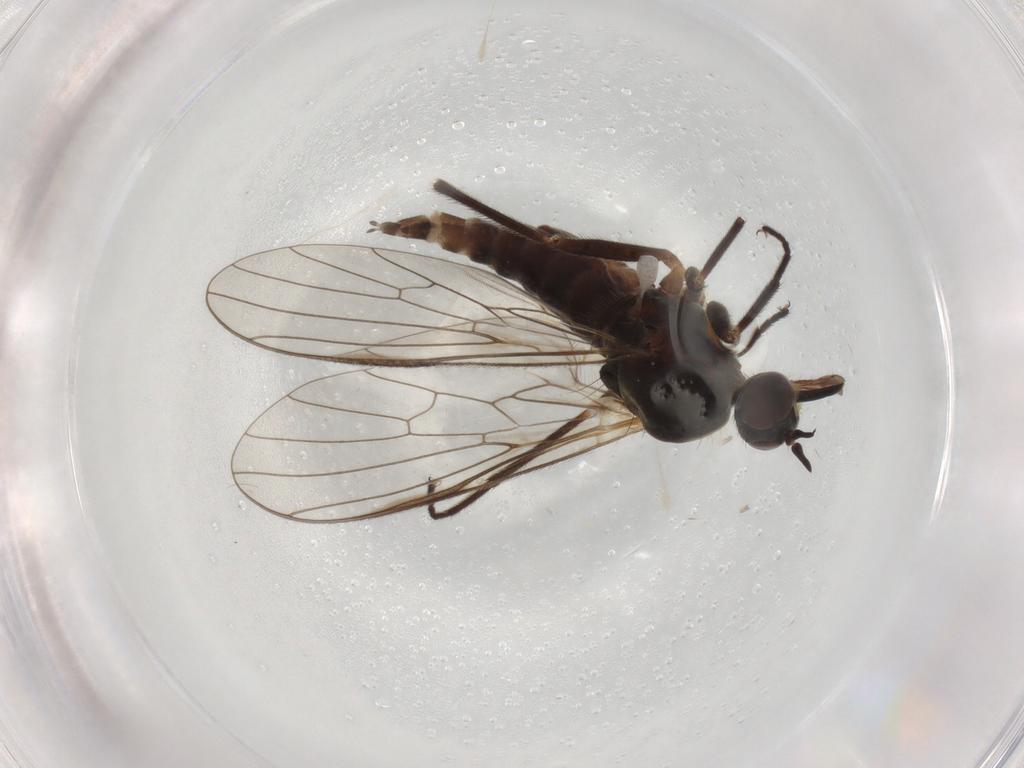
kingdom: Animalia
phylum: Arthropoda
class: Insecta
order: Diptera
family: Empididae
